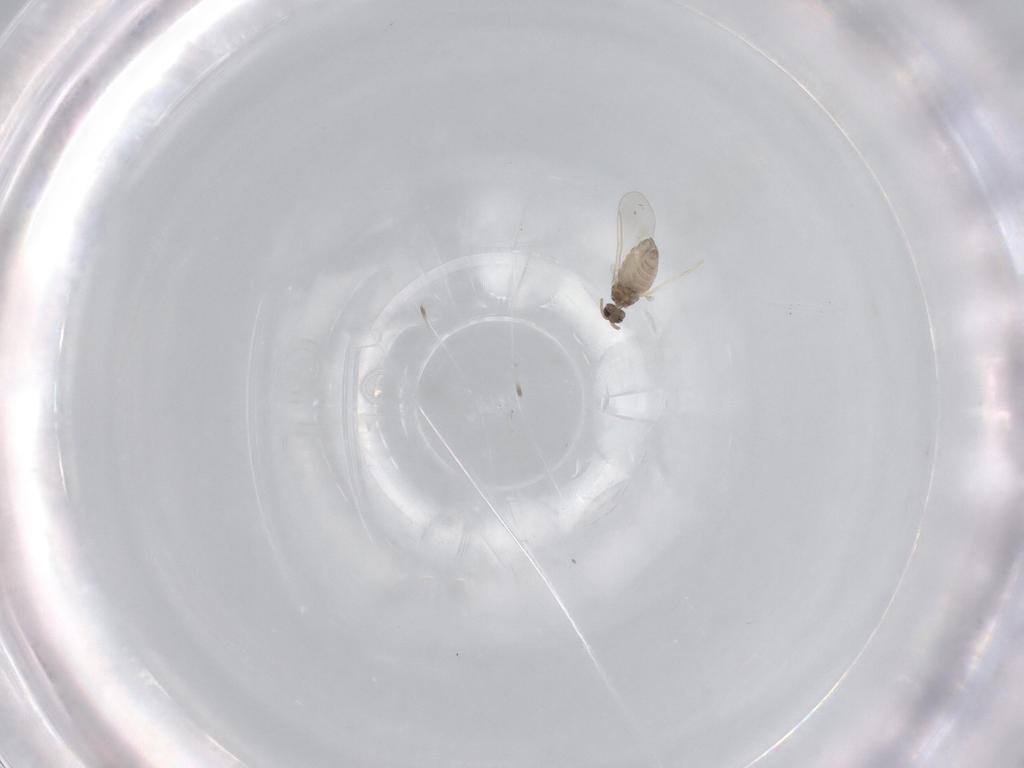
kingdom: Animalia
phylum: Arthropoda
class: Insecta
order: Diptera
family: Cecidomyiidae
